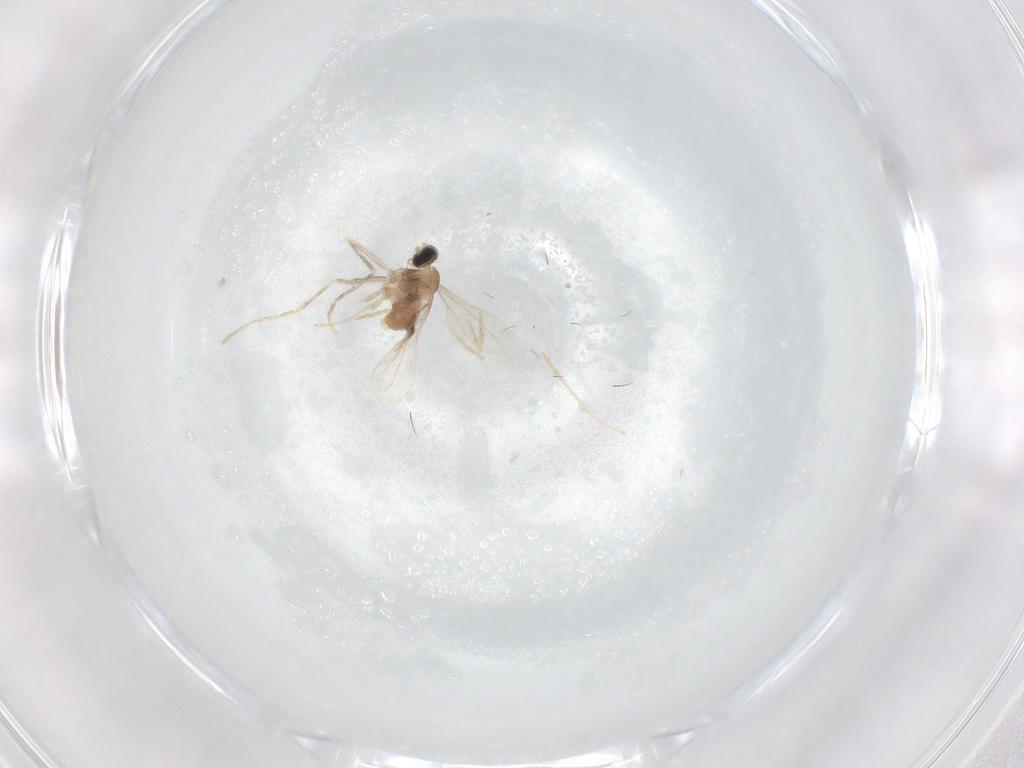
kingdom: Animalia
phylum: Arthropoda
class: Insecta
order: Diptera
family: Cecidomyiidae
